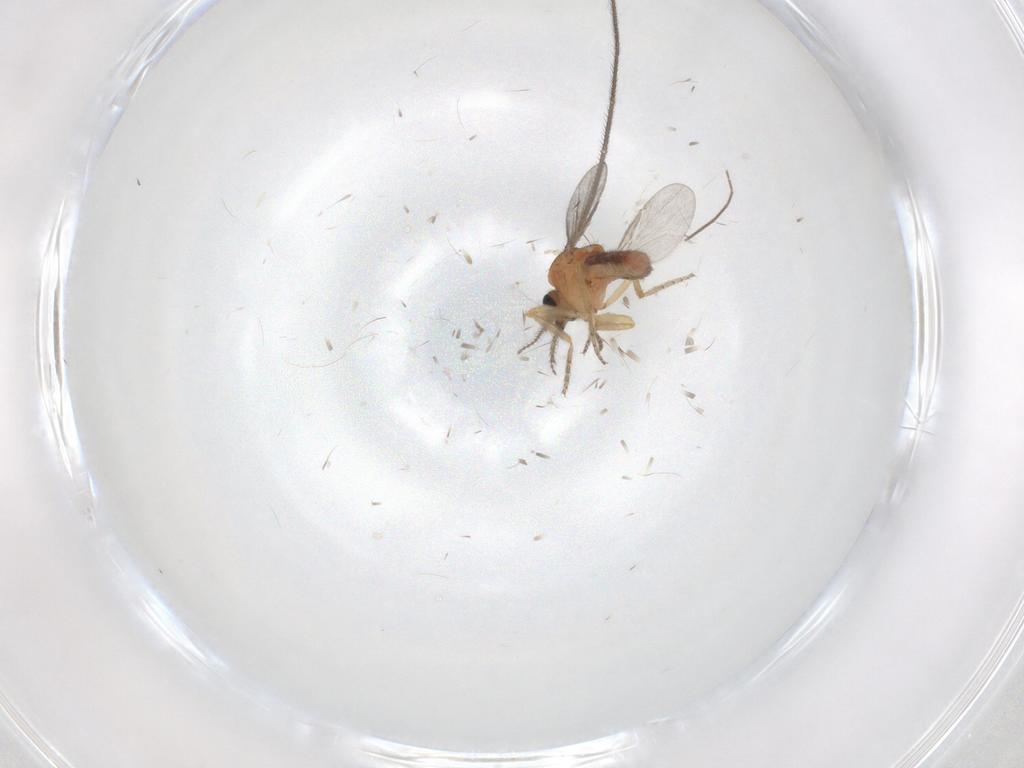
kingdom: Animalia
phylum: Arthropoda
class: Insecta
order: Diptera
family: Ceratopogonidae
